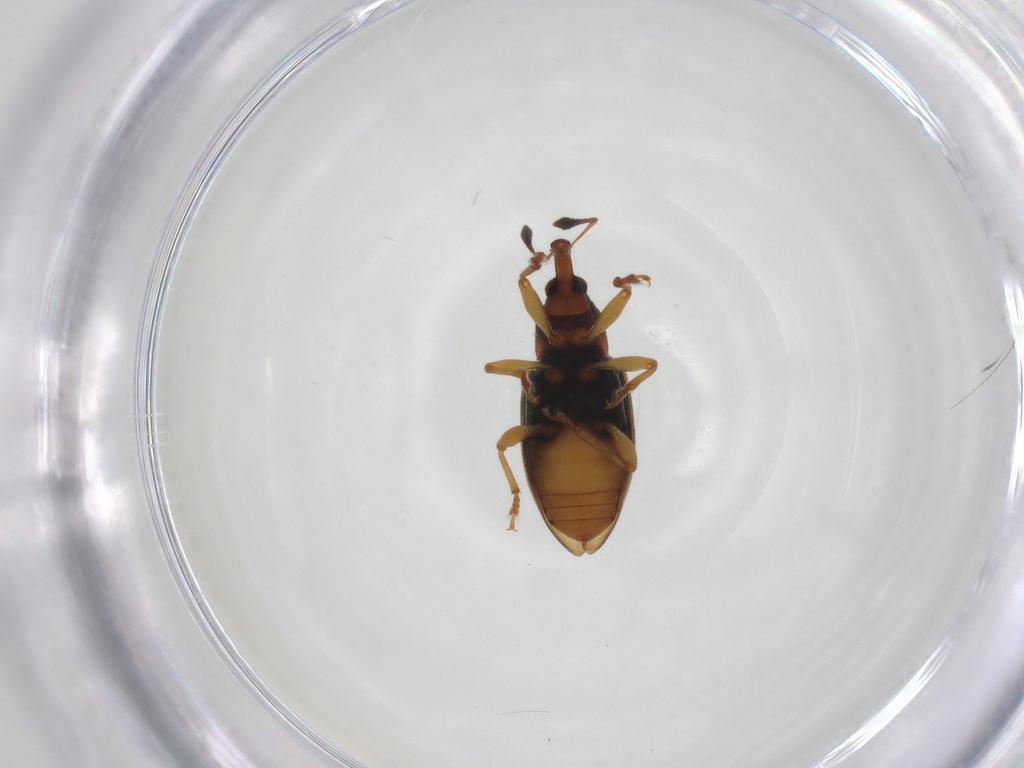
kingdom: Animalia
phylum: Arthropoda
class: Insecta
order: Coleoptera
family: Curculionidae
